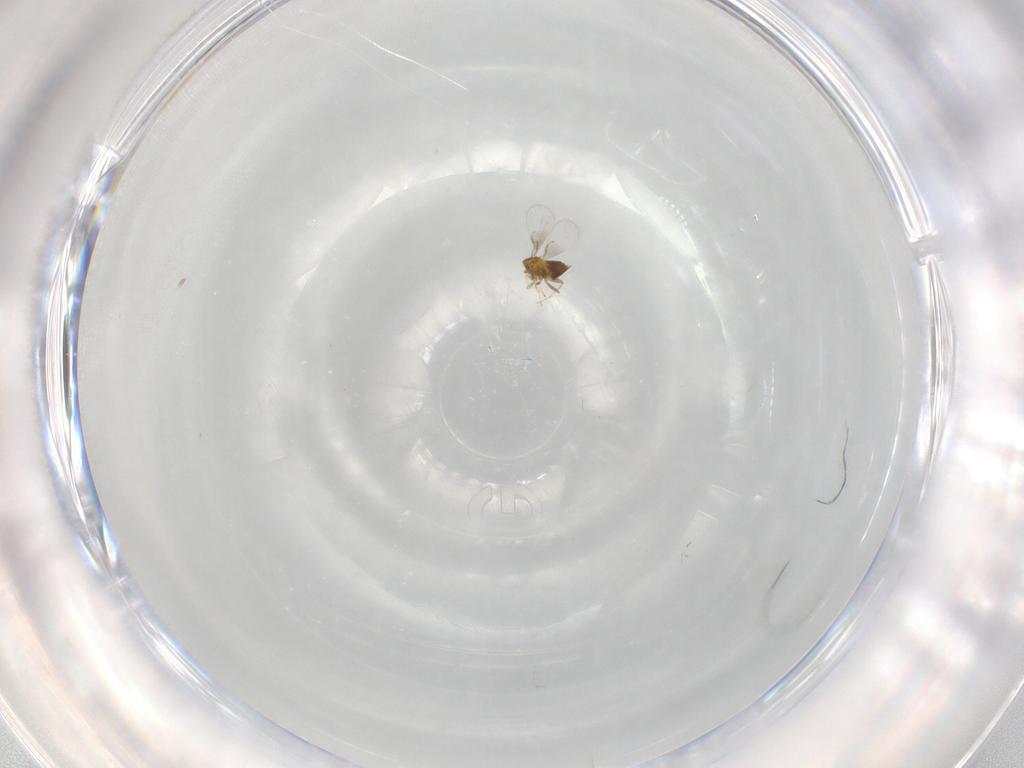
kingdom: Animalia
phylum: Arthropoda
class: Insecta
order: Hymenoptera
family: Trichogrammatidae
